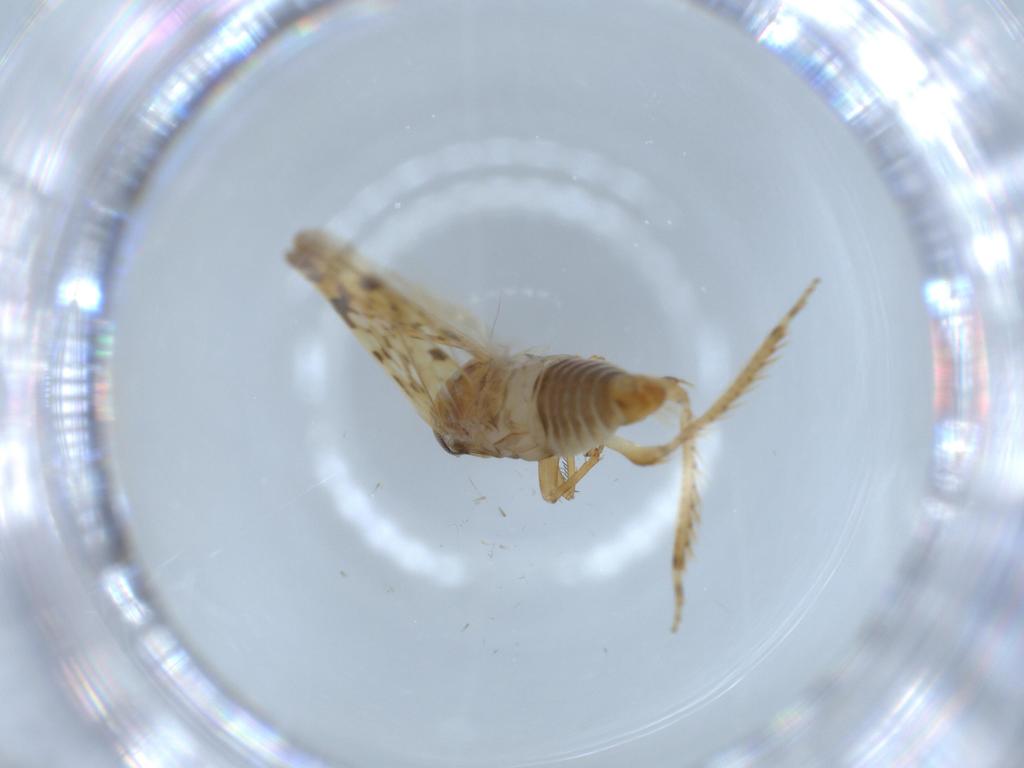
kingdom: Animalia
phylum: Arthropoda
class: Insecta
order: Hemiptera
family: Cicadellidae
